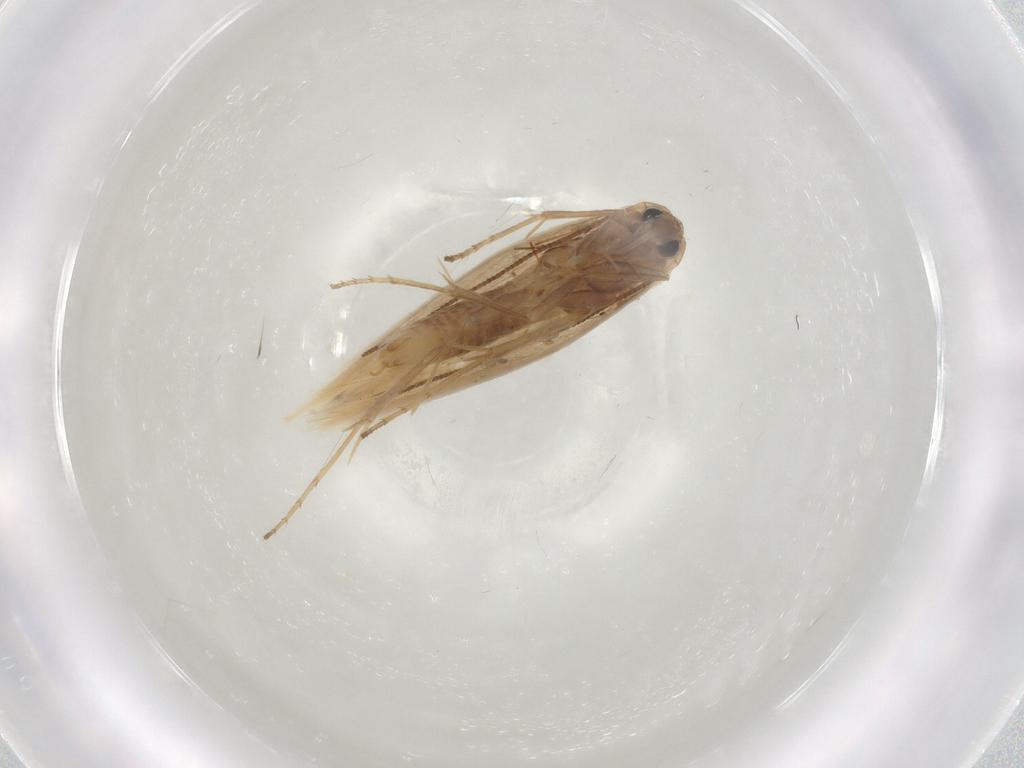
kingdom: Animalia
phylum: Arthropoda
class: Insecta
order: Lepidoptera
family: Bucculatricidae
